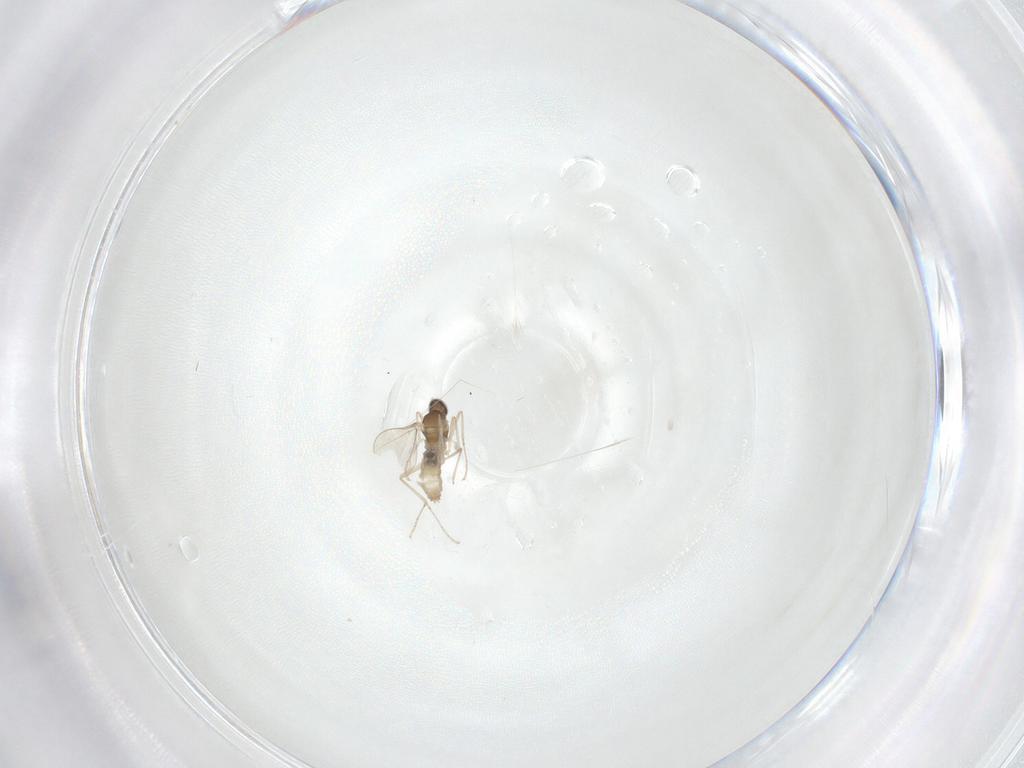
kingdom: Animalia
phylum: Arthropoda
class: Insecta
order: Diptera
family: Cecidomyiidae
